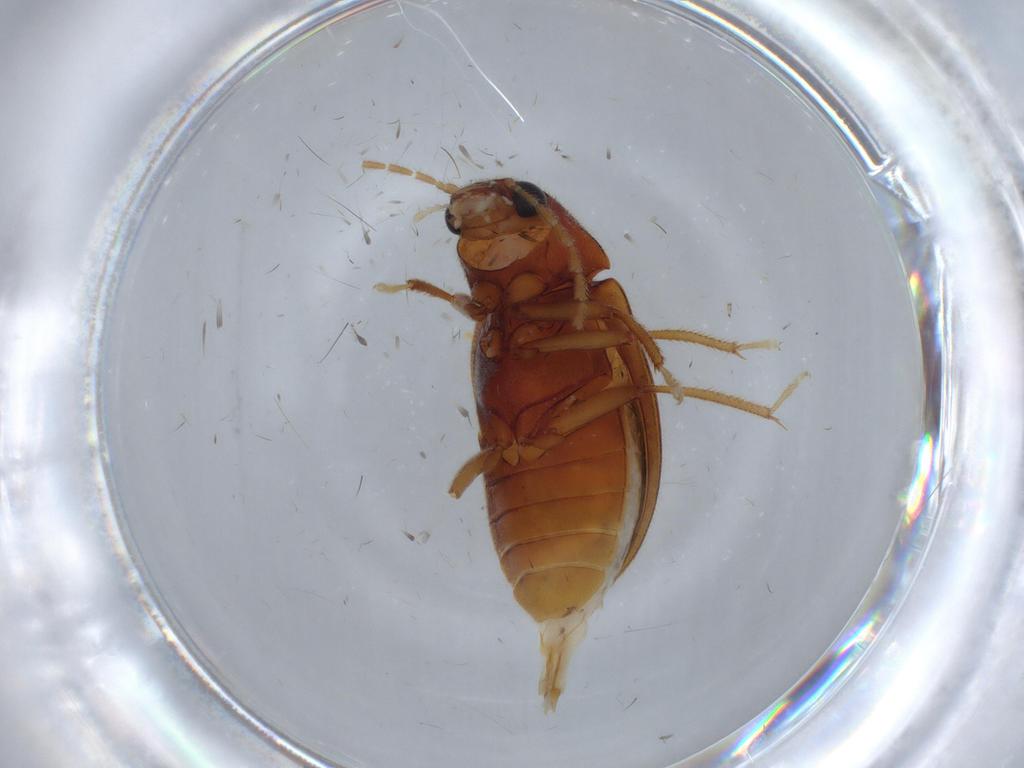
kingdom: Animalia
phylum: Arthropoda
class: Insecta
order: Coleoptera
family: Ptilodactylidae
